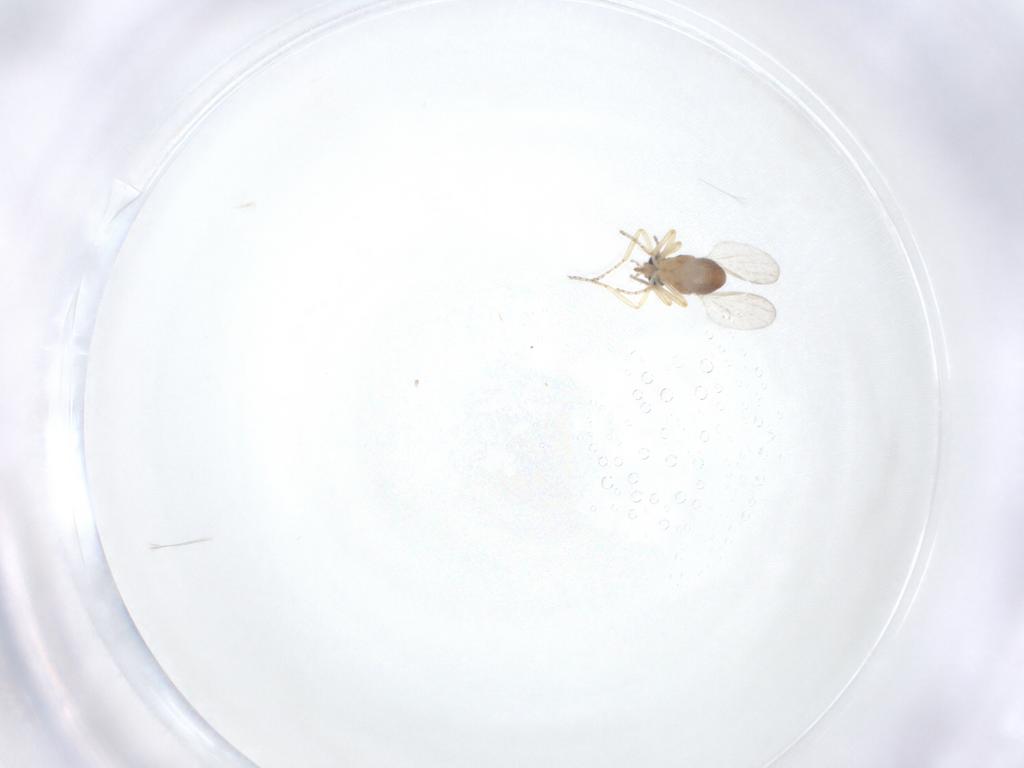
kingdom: Animalia
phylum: Arthropoda
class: Insecta
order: Diptera
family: Ceratopogonidae
